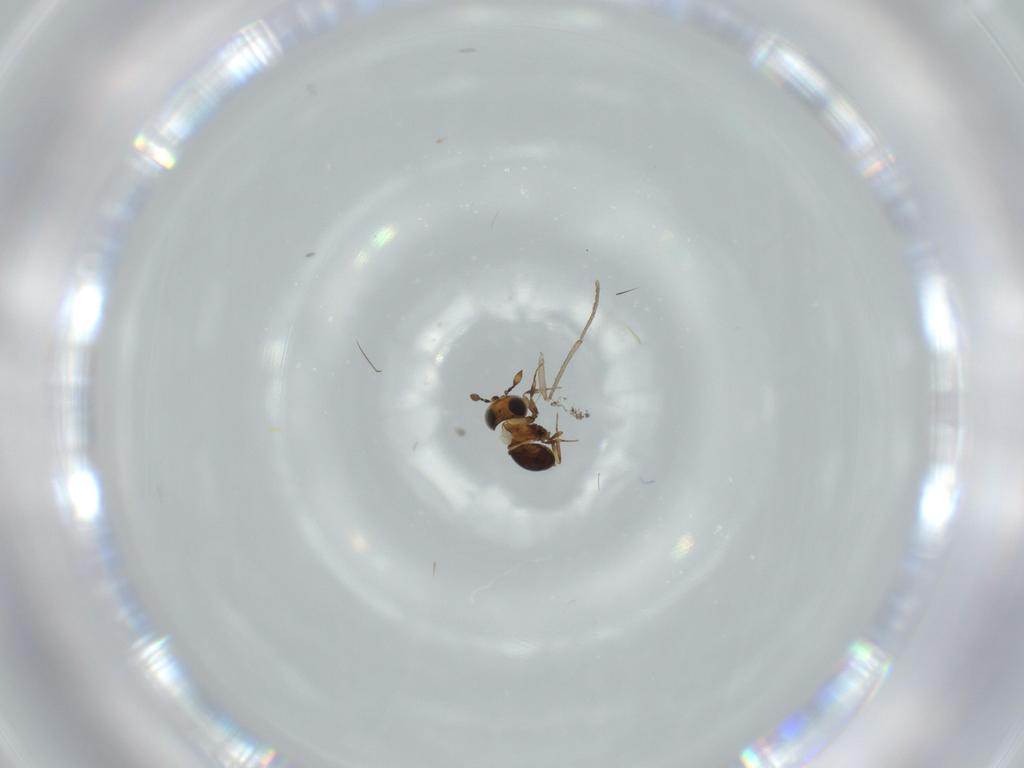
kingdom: Animalia
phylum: Arthropoda
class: Insecta
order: Hymenoptera
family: Scelionidae
